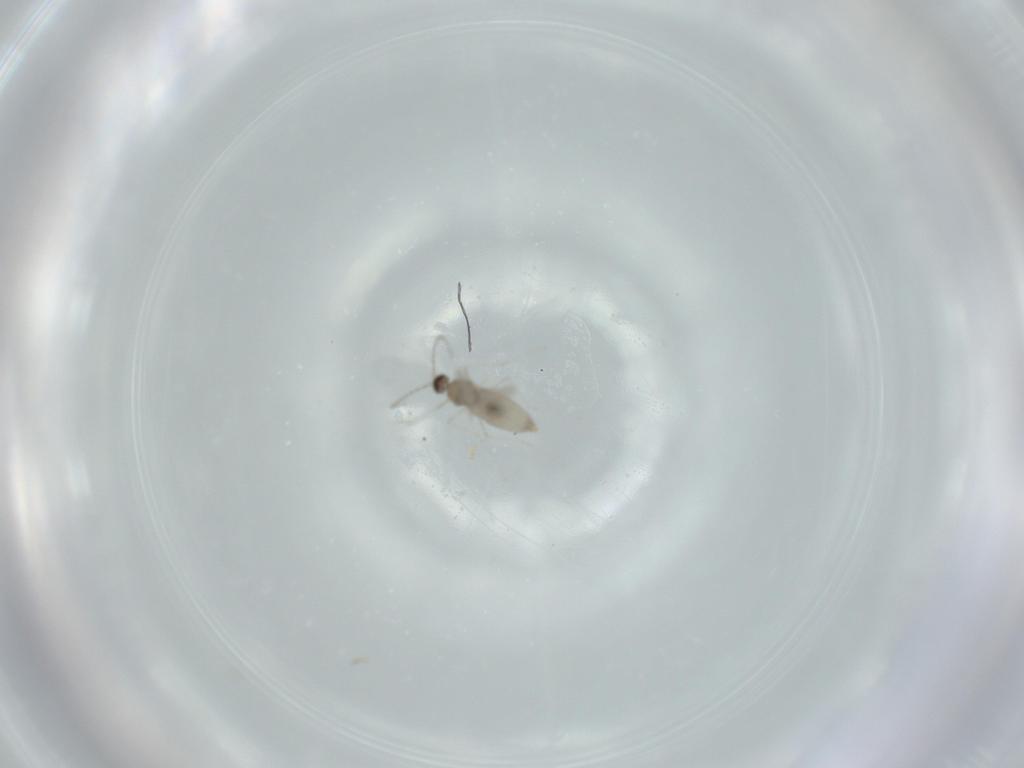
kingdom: Animalia
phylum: Arthropoda
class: Insecta
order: Diptera
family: Cecidomyiidae
